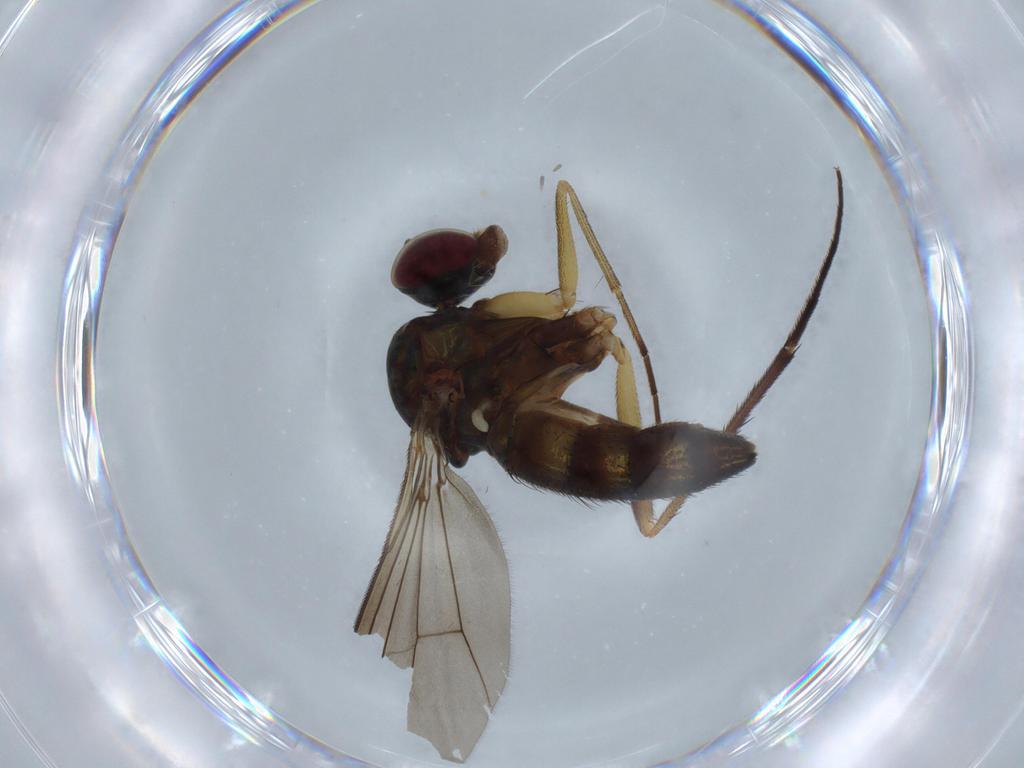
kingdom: Animalia
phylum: Arthropoda
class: Insecta
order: Diptera
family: Dolichopodidae
